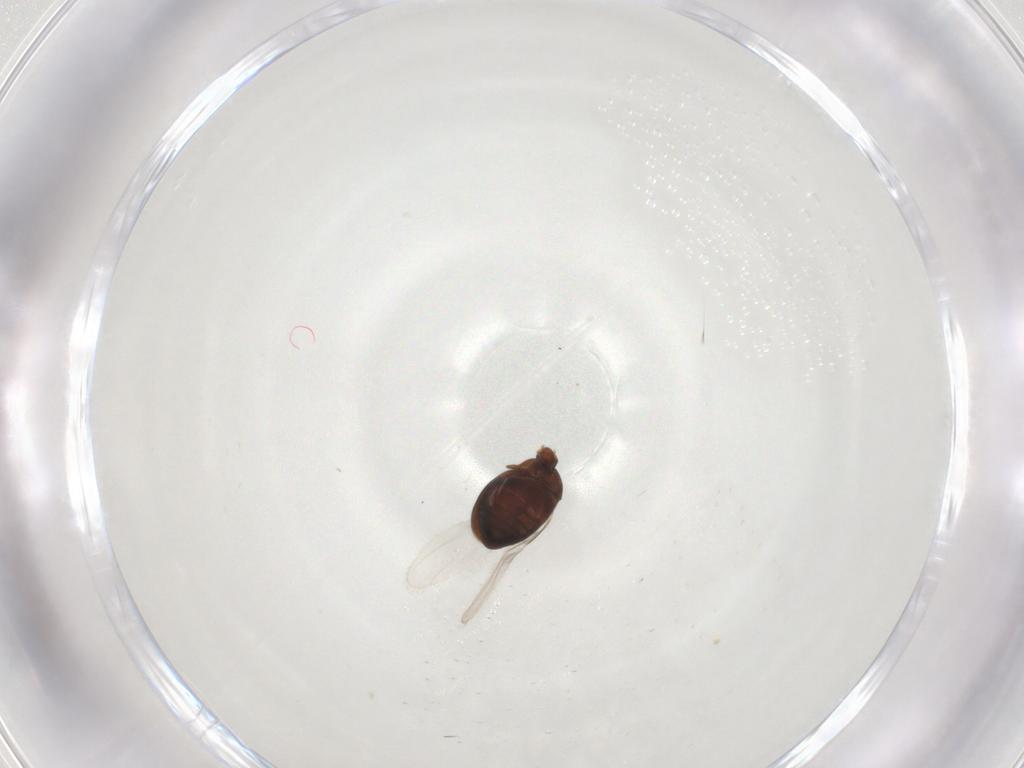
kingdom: Animalia
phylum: Arthropoda
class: Insecta
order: Coleoptera
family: Corylophidae
